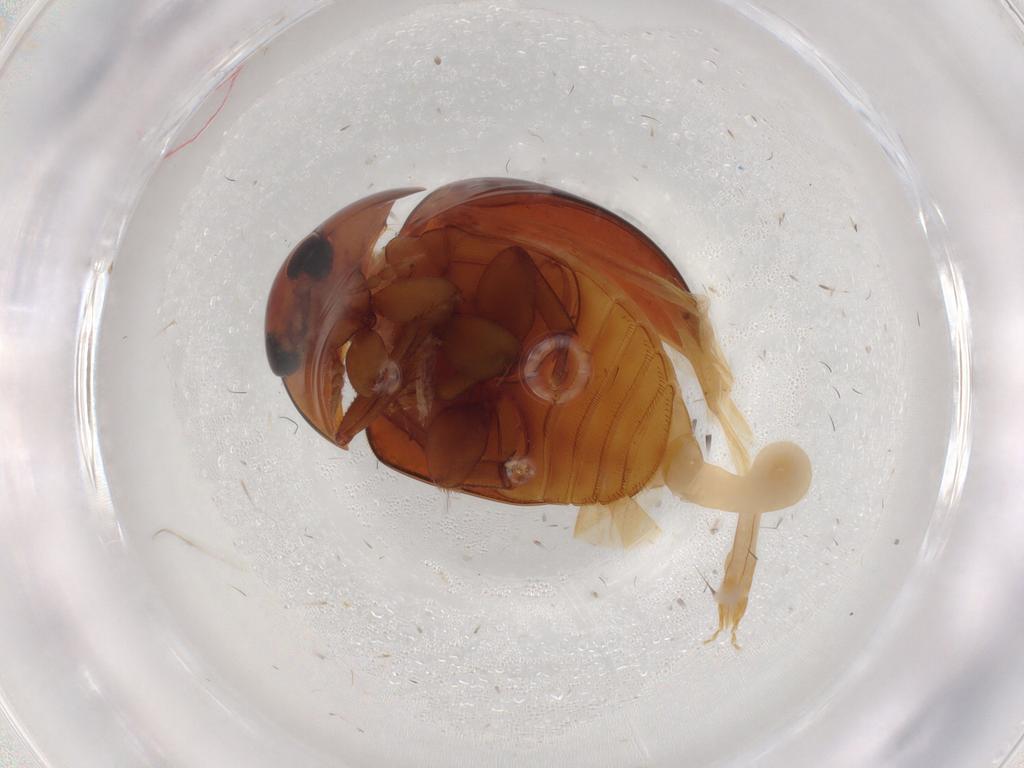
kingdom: Animalia
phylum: Arthropoda
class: Insecta
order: Coleoptera
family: Phalacridae
